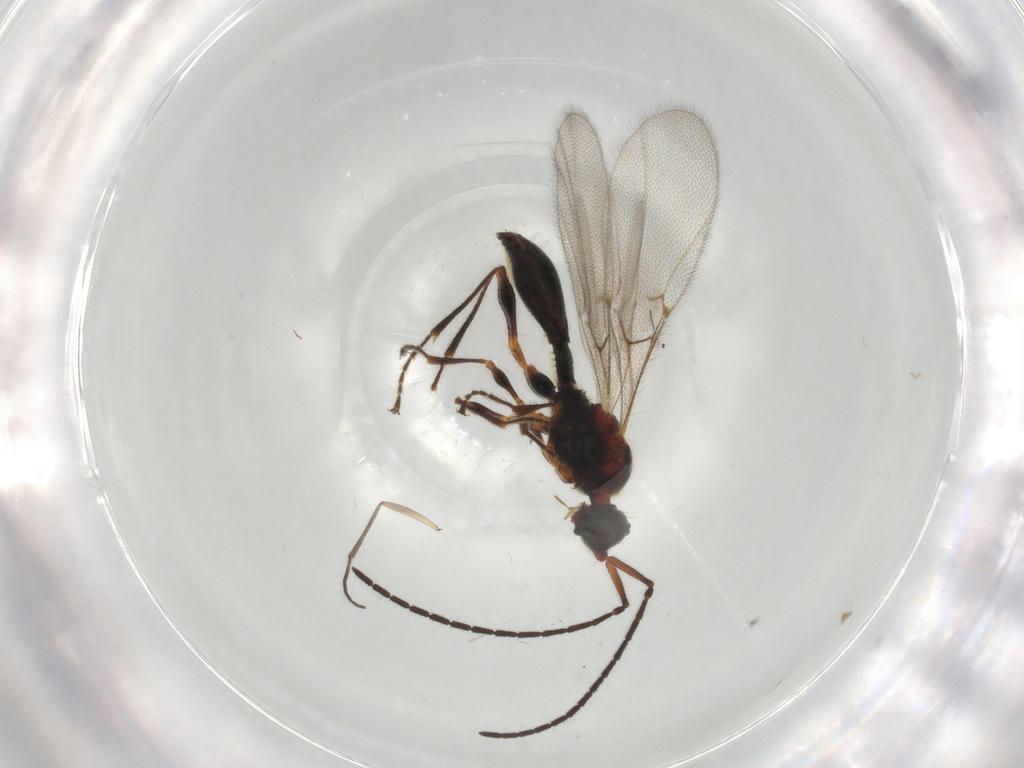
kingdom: Animalia
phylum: Arthropoda
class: Insecta
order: Hymenoptera
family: Diapriidae
